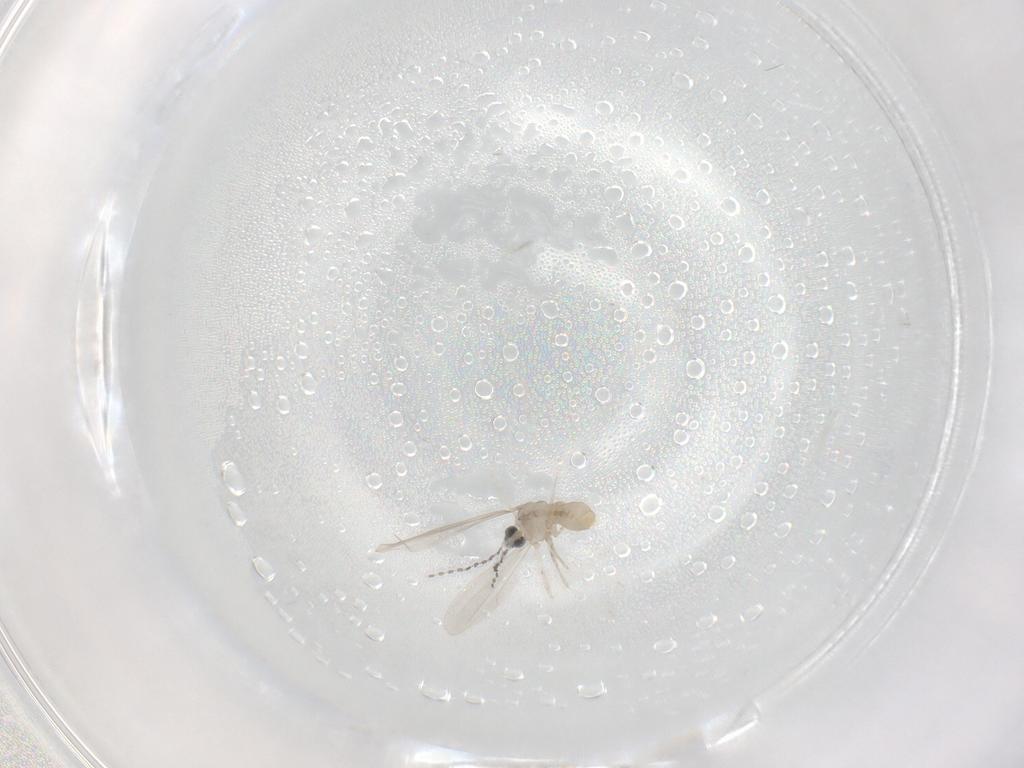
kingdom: Animalia
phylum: Arthropoda
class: Insecta
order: Diptera
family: Cecidomyiidae
